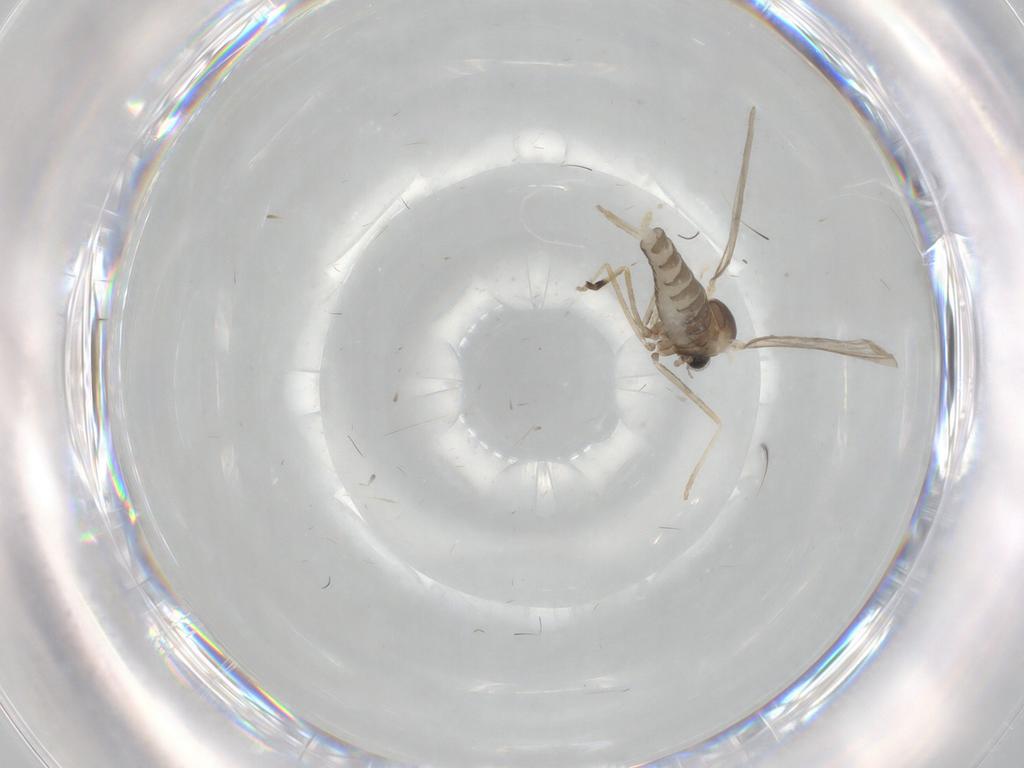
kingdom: Animalia
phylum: Arthropoda
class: Insecta
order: Diptera
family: Cecidomyiidae
